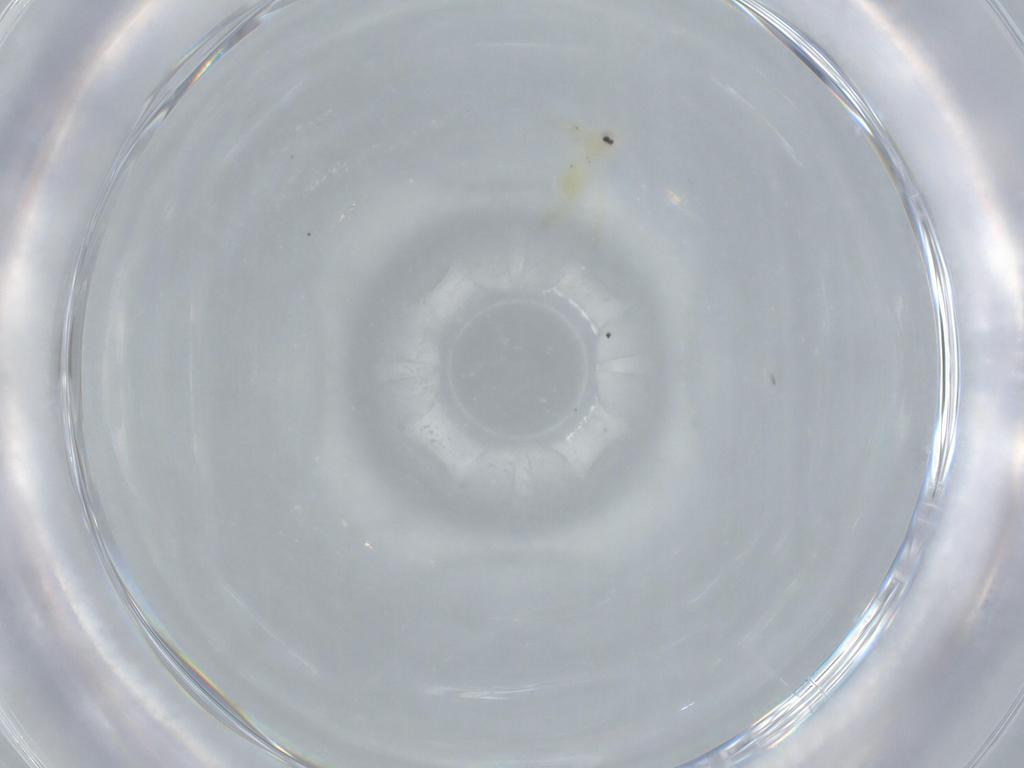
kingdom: Animalia
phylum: Arthropoda
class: Insecta
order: Hemiptera
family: Aleyrodidae
